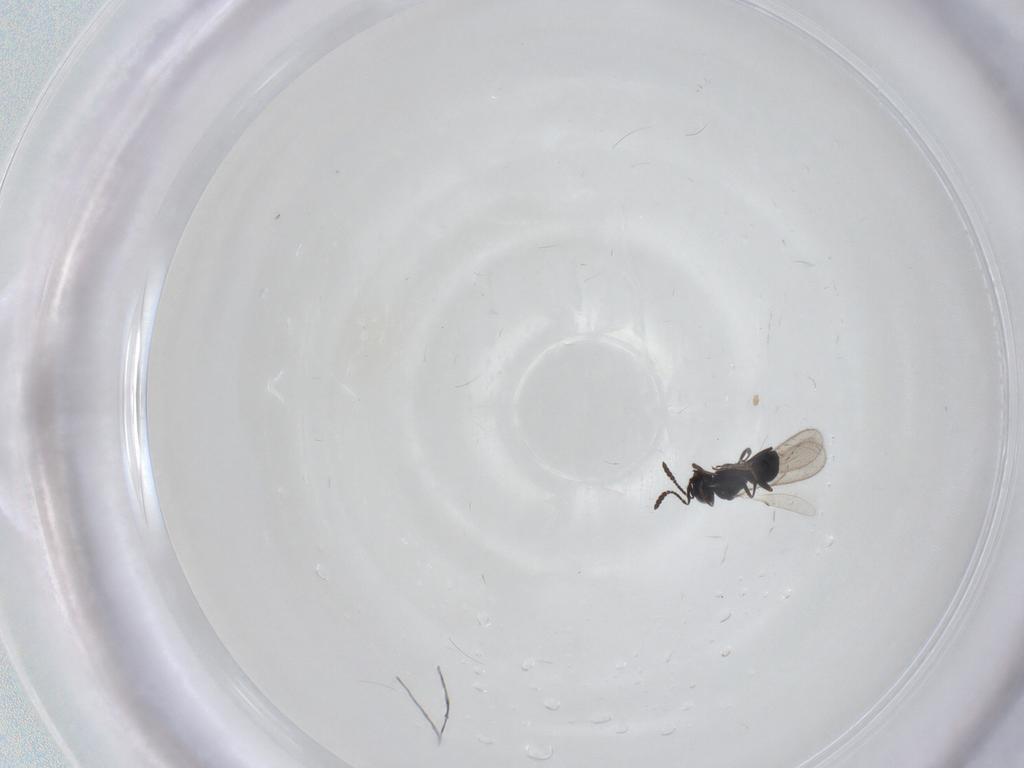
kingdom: Animalia
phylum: Arthropoda
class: Insecta
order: Hymenoptera
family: Scelionidae
